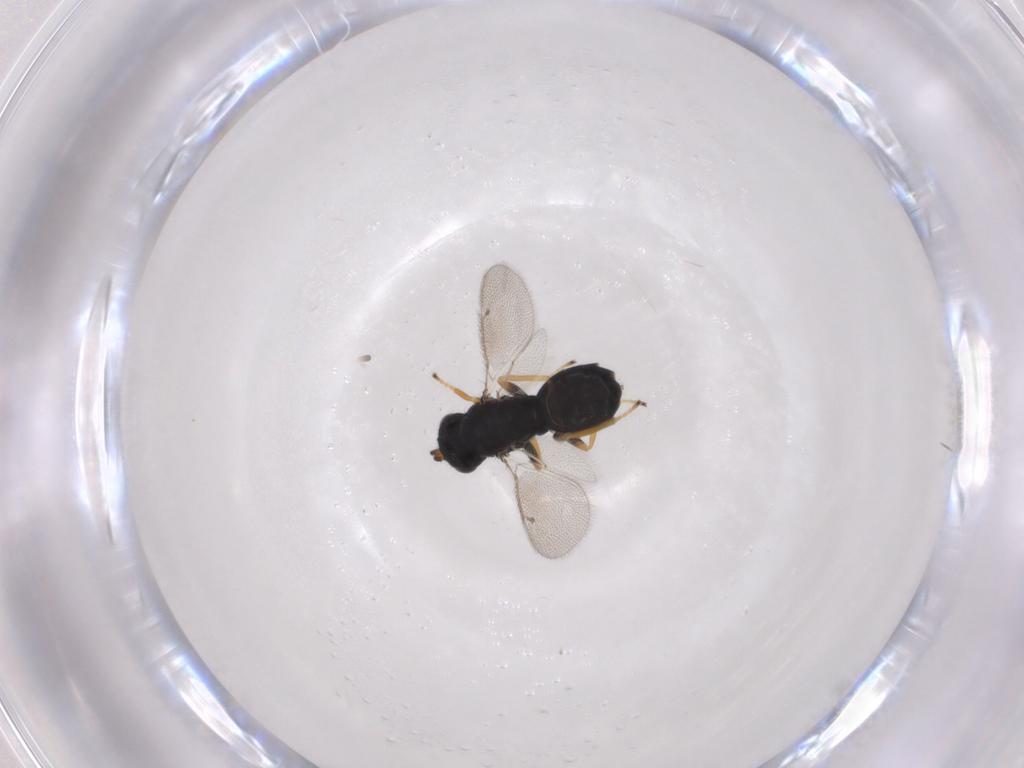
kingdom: Animalia
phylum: Arthropoda
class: Insecta
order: Hymenoptera
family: Eulophidae
